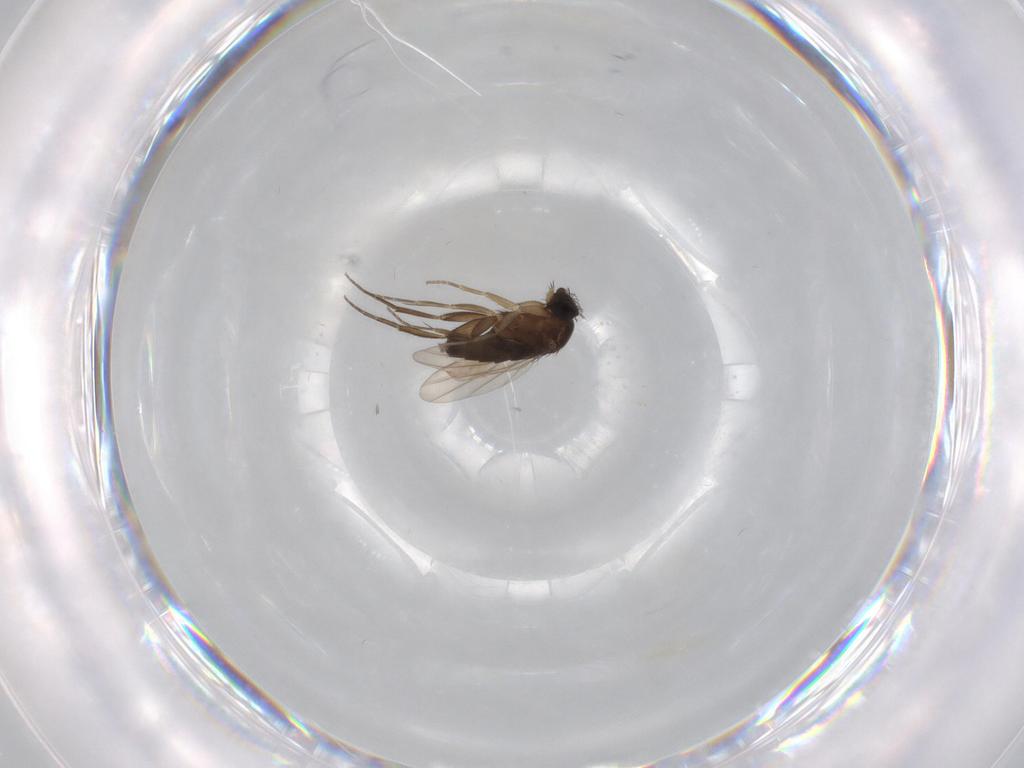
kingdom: Animalia
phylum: Arthropoda
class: Insecta
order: Diptera
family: Phoridae
